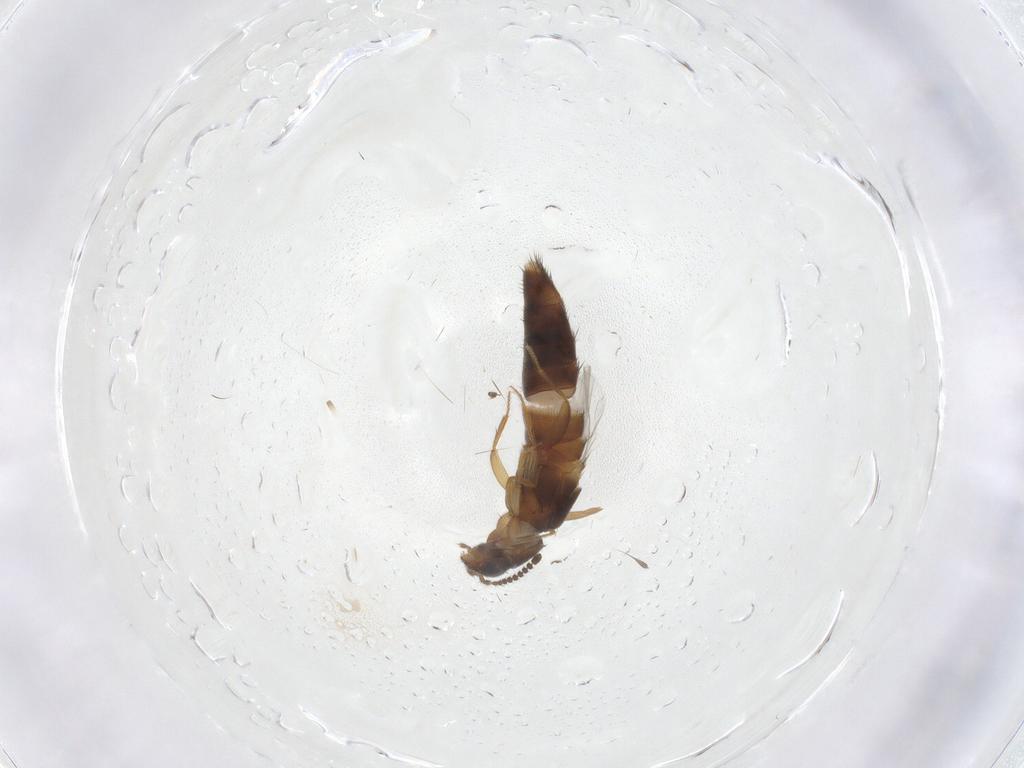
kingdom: Animalia
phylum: Arthropoda
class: Insecta
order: Coleoptera
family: Staphylinidae
